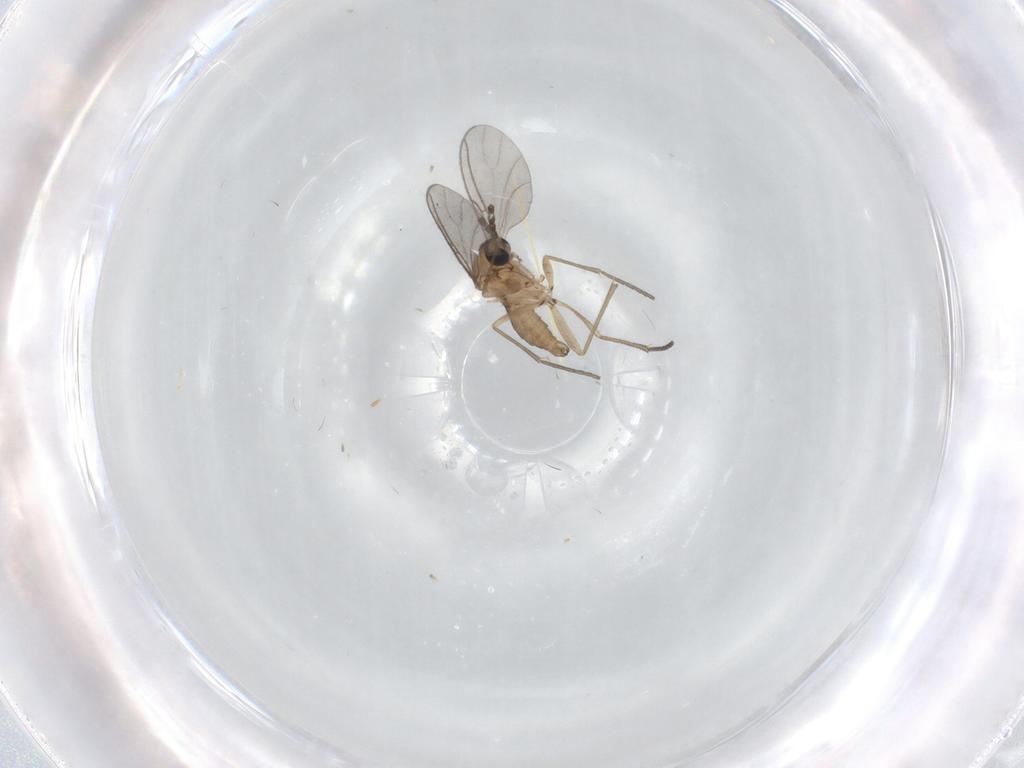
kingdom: Animalia
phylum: Arthropoda
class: Insecta
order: Diptera
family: Sciaridae
